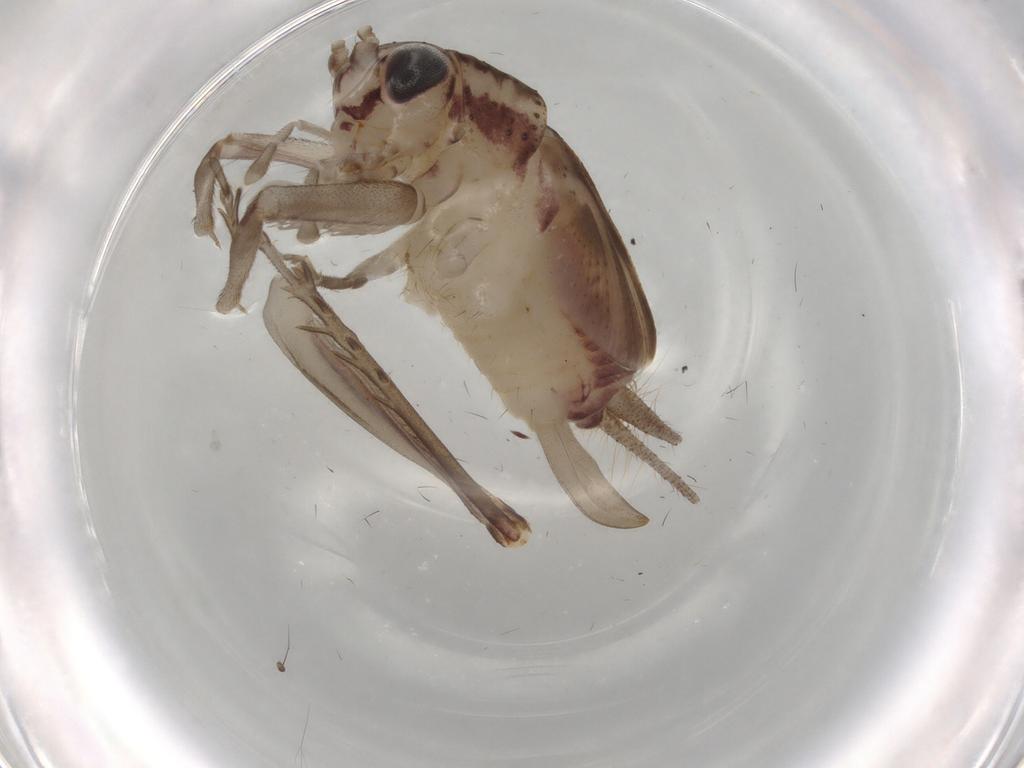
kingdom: Animalia
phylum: Arthropoda
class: Insecta
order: Orthoptera
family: Trigonidiidae
